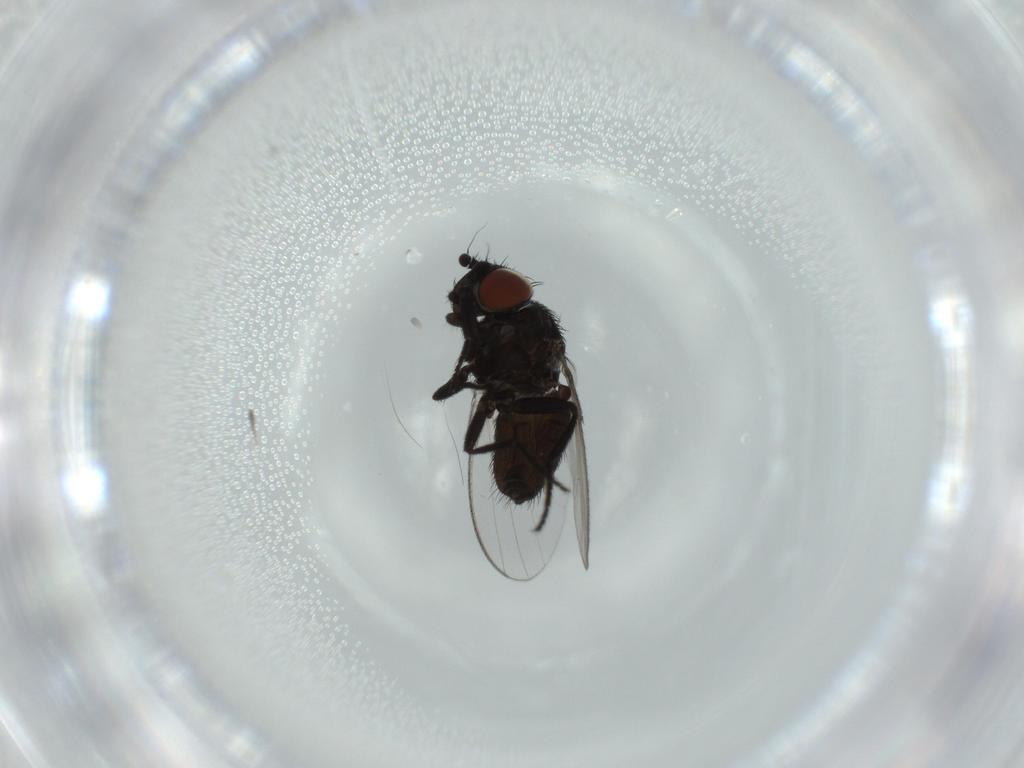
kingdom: Animalia
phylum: Arthropoda
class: Insecta
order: Diptera
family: Milichiidae
